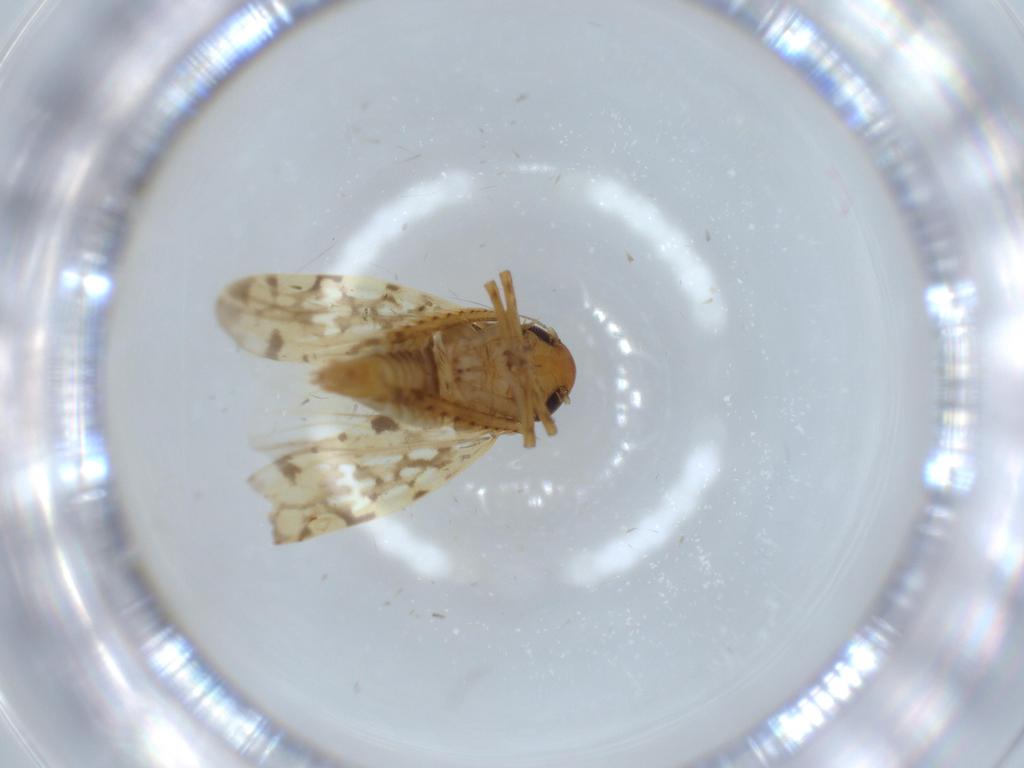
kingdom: Animalia
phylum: Arthropoda
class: Insecta
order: Hemiptera
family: Cicadellidae
